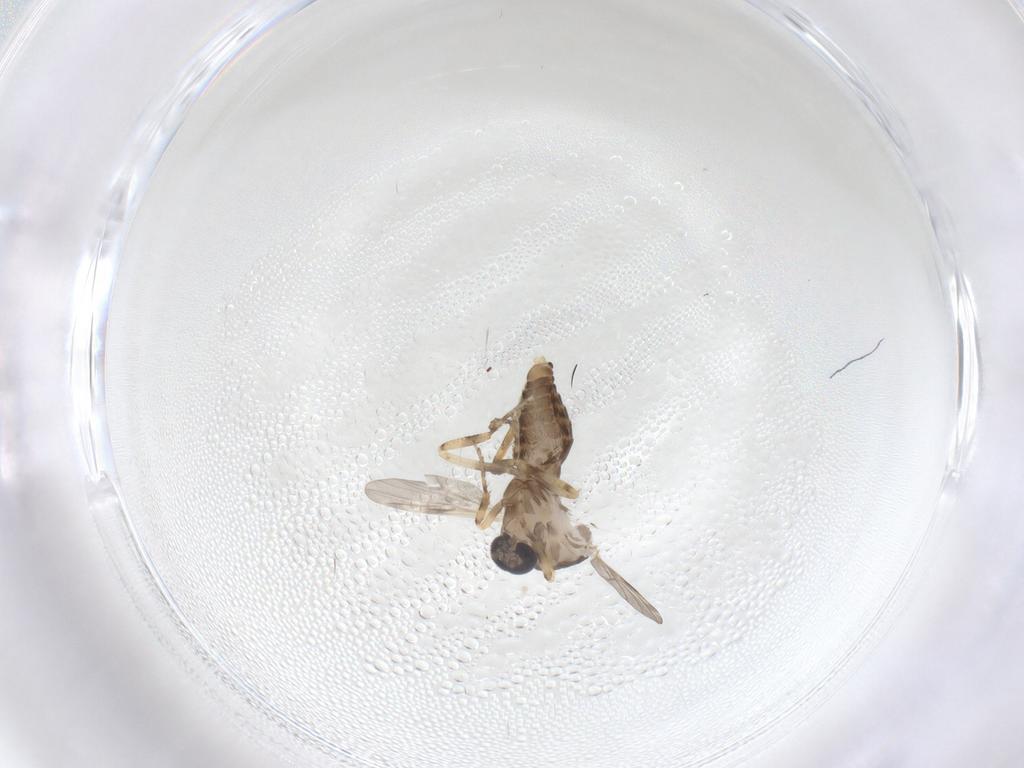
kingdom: Animalia
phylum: Arthropoda
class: Insecta
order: Diptera
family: Ceratopogonidae
